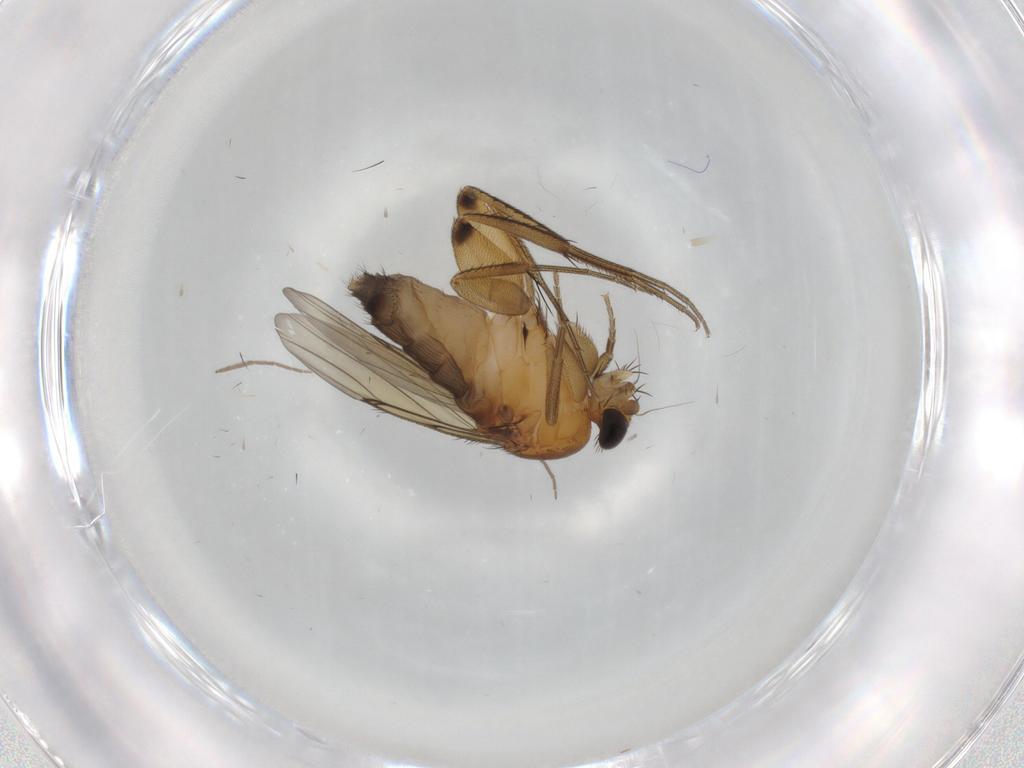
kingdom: Animalia
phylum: Arthropoda
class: Insecta
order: Diptera
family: Phoridae
